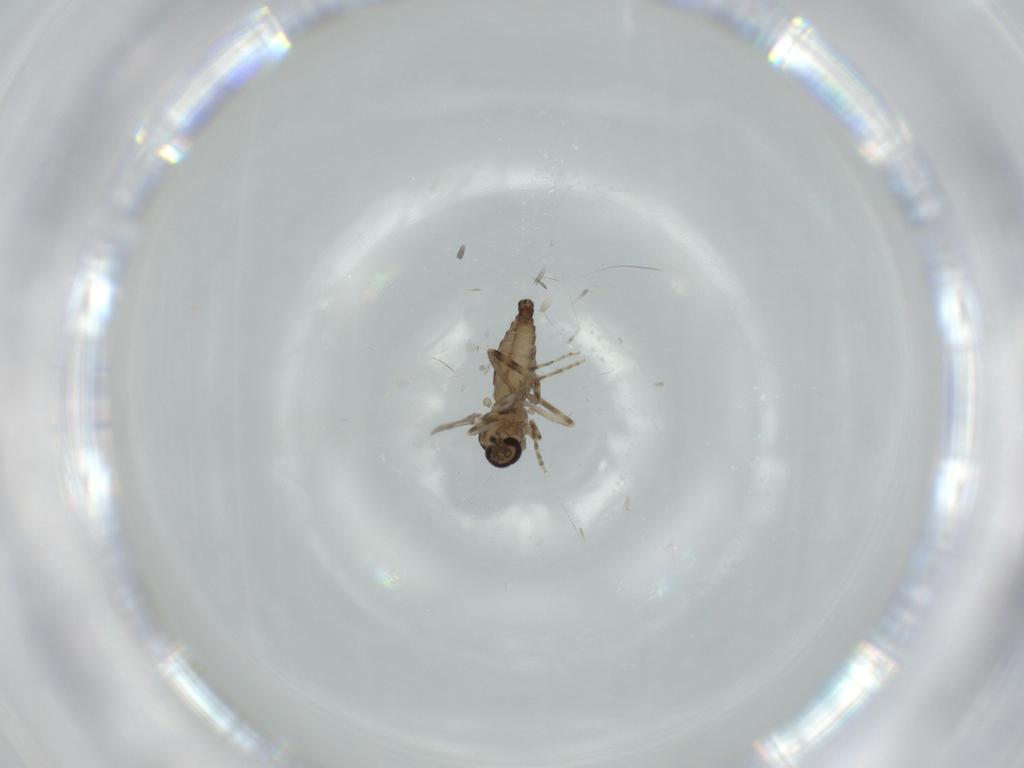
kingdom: Animalia
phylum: Arthropoda
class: Insecta
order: Diptera
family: Ceratopogonidae
